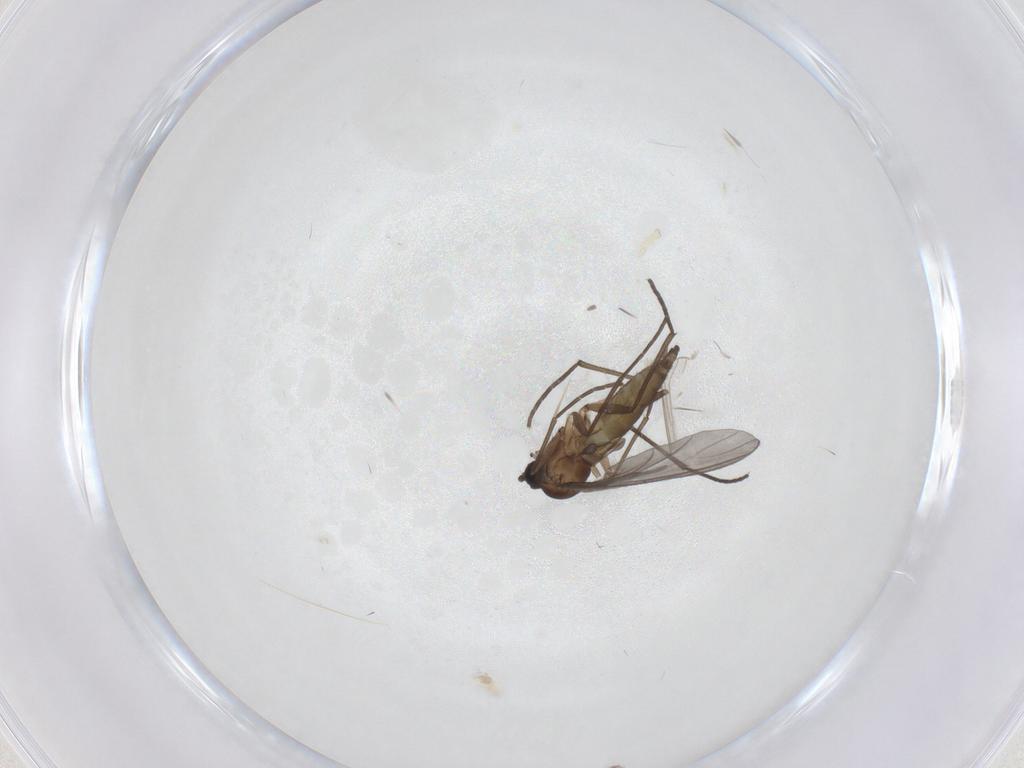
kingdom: Animalia
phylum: Arthropoda
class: Insecta
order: Diptera
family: Sciaridae
